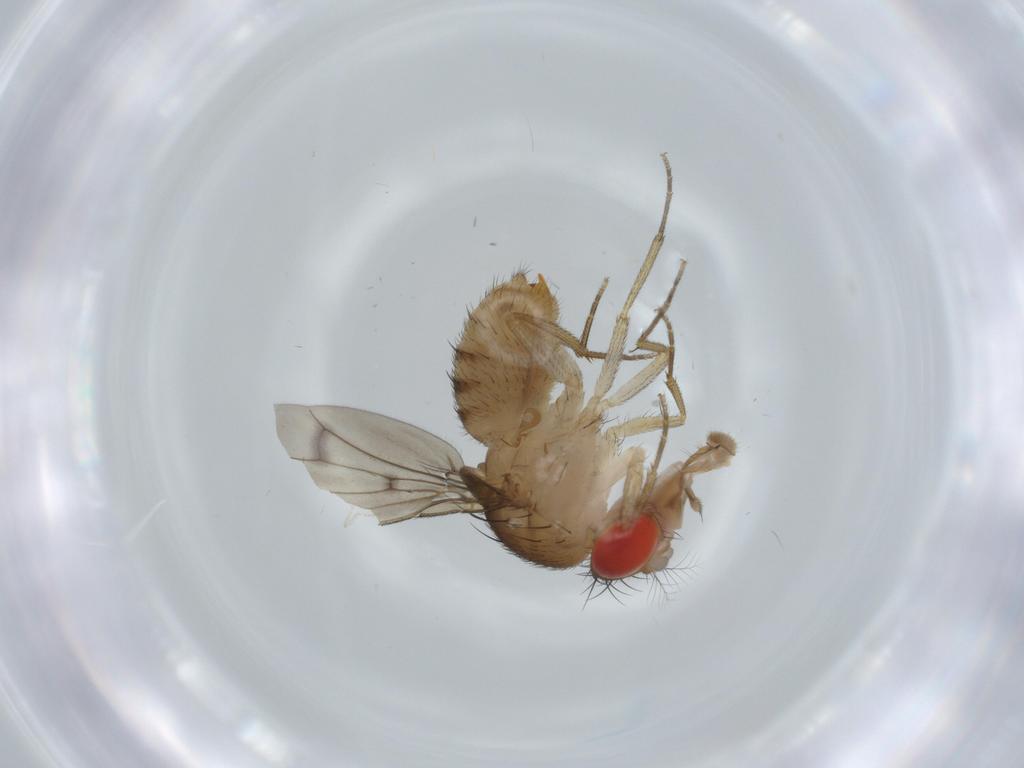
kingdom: Animalia
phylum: Arthropoda
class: Insecta
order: Diptera
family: Drosophilidae
